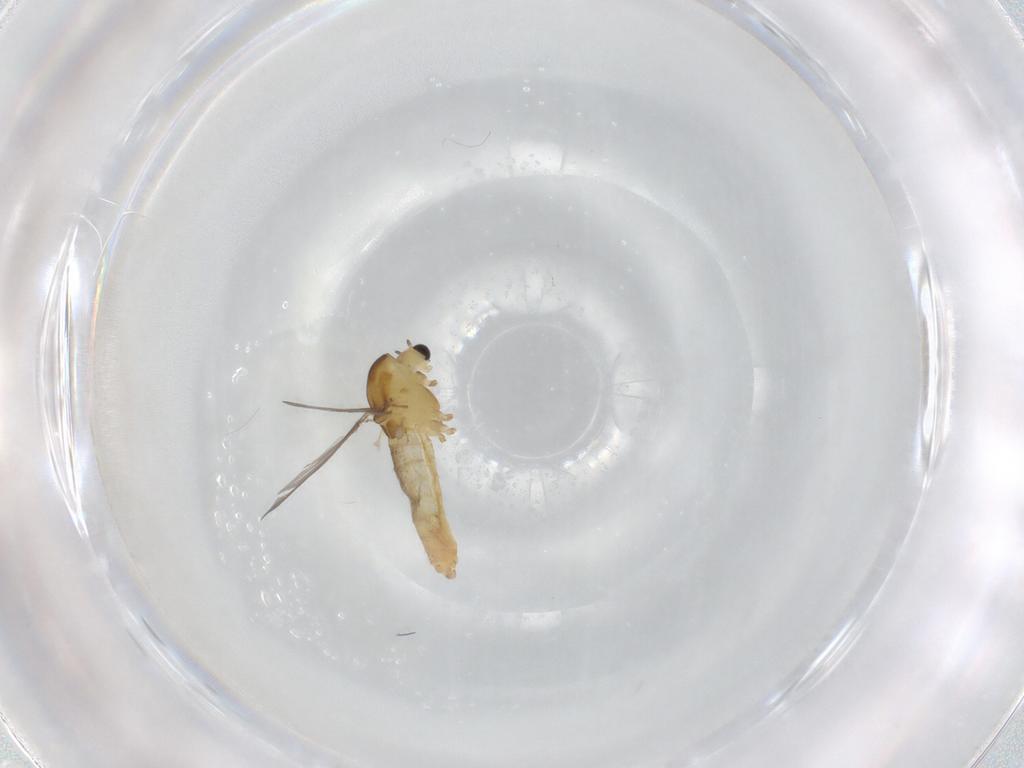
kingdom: Animalia
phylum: Arthropoda
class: Insecta
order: Diptera
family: Chironomidae
